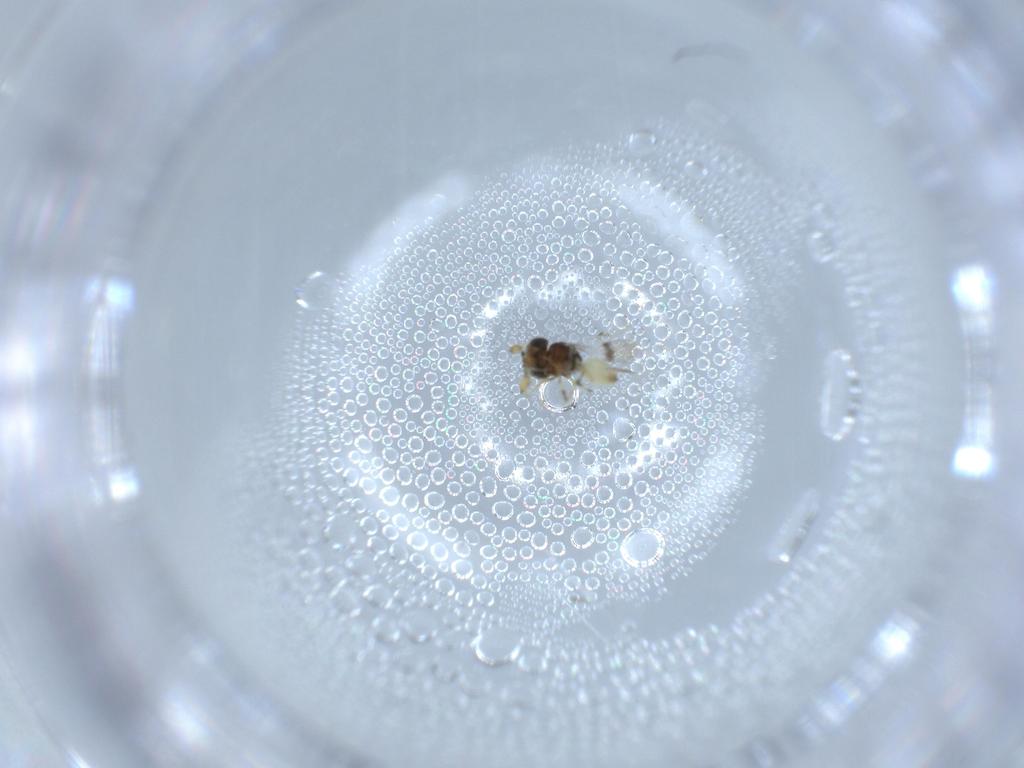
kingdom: Animalia
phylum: Arthropoda
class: Insecta
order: Hymenoptera
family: Scelionidae
